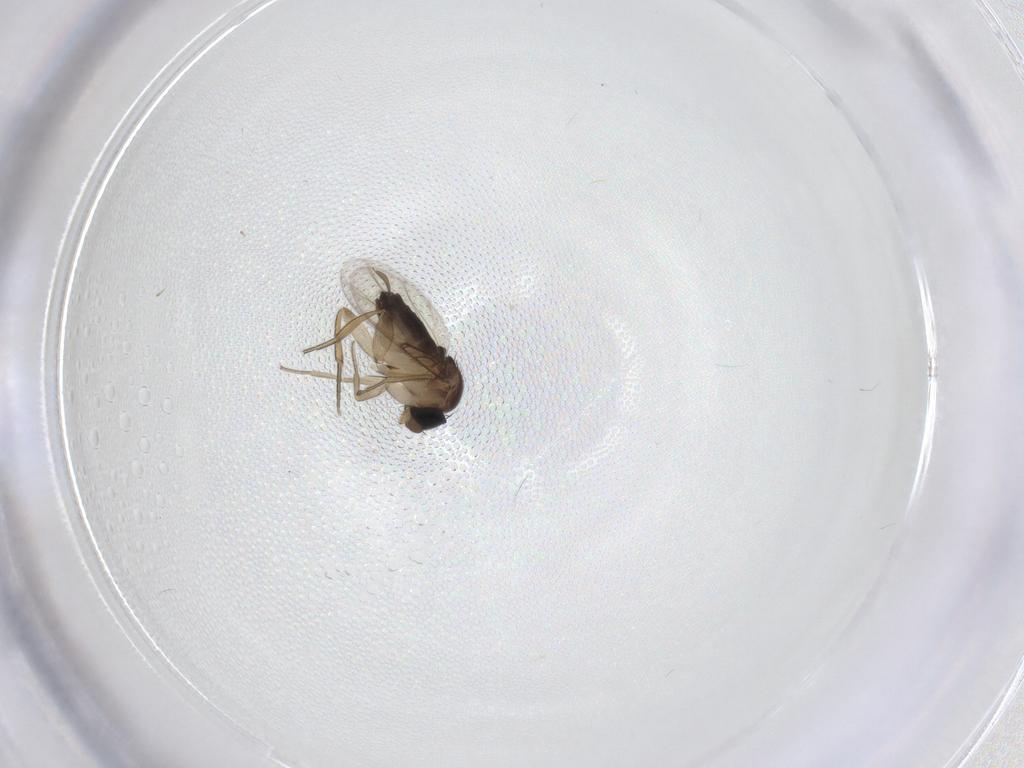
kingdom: Animalia
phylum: Arthropoda
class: Insecta
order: Diptera
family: Phoridae
